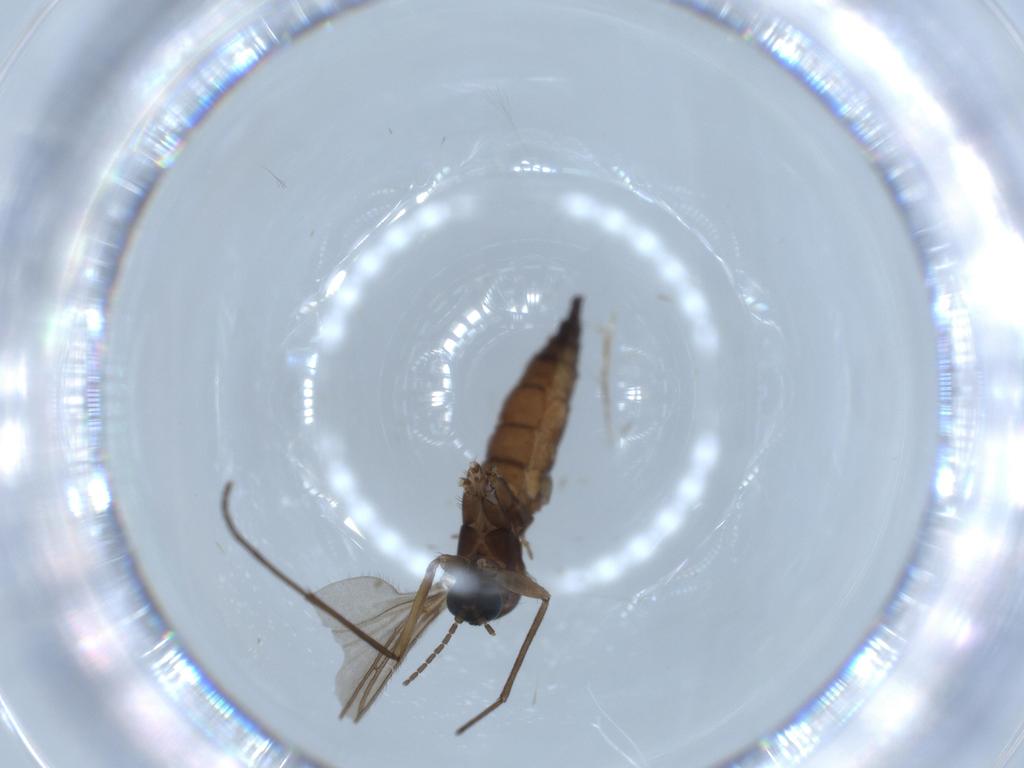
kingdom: Animalia
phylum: Arthropoda
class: Insecta
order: Diptera
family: Sciaridae
